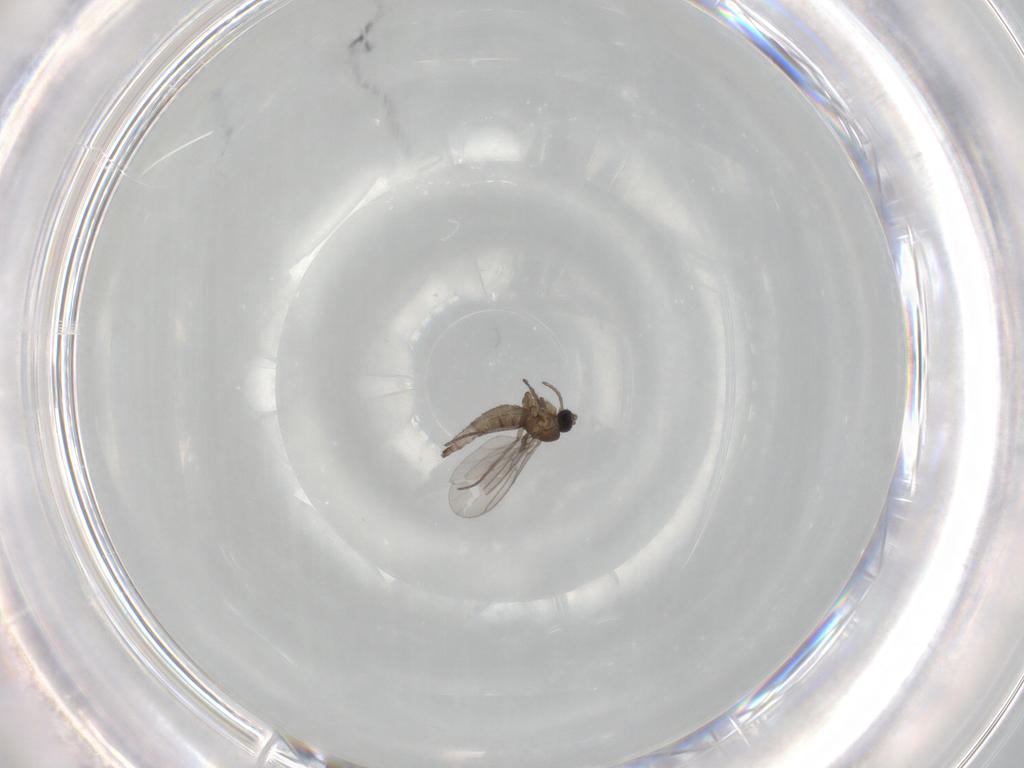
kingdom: Animalia
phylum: Arthropoda
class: Insecta
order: Diptera
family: Sciaridae
